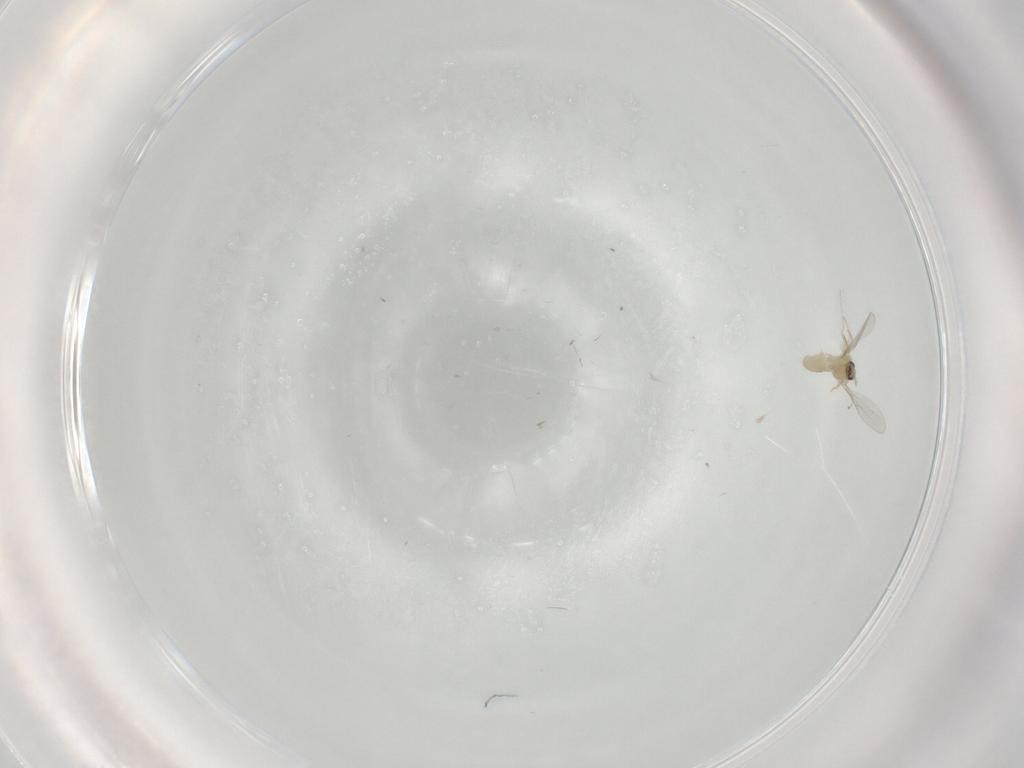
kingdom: Animalia
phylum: Arthropoda
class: Insecta
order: Diptera
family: Cecidomyiidae
